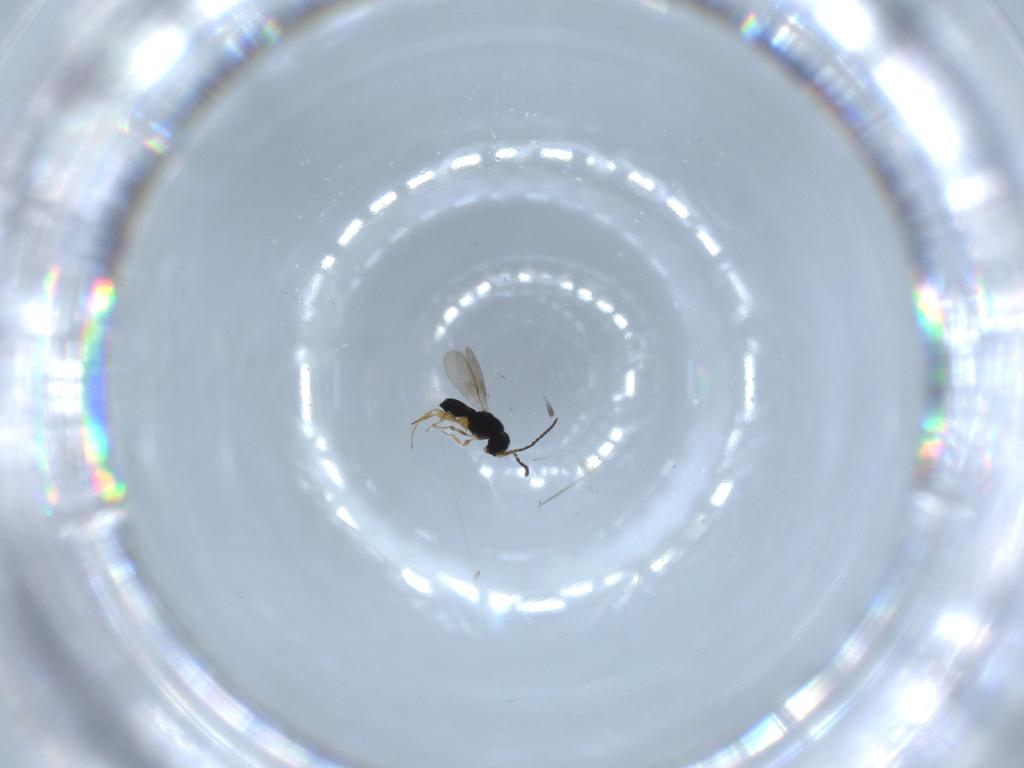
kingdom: Animalia
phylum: Arthropoda
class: Insecta
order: Hymenoptera
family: Scelionidae
